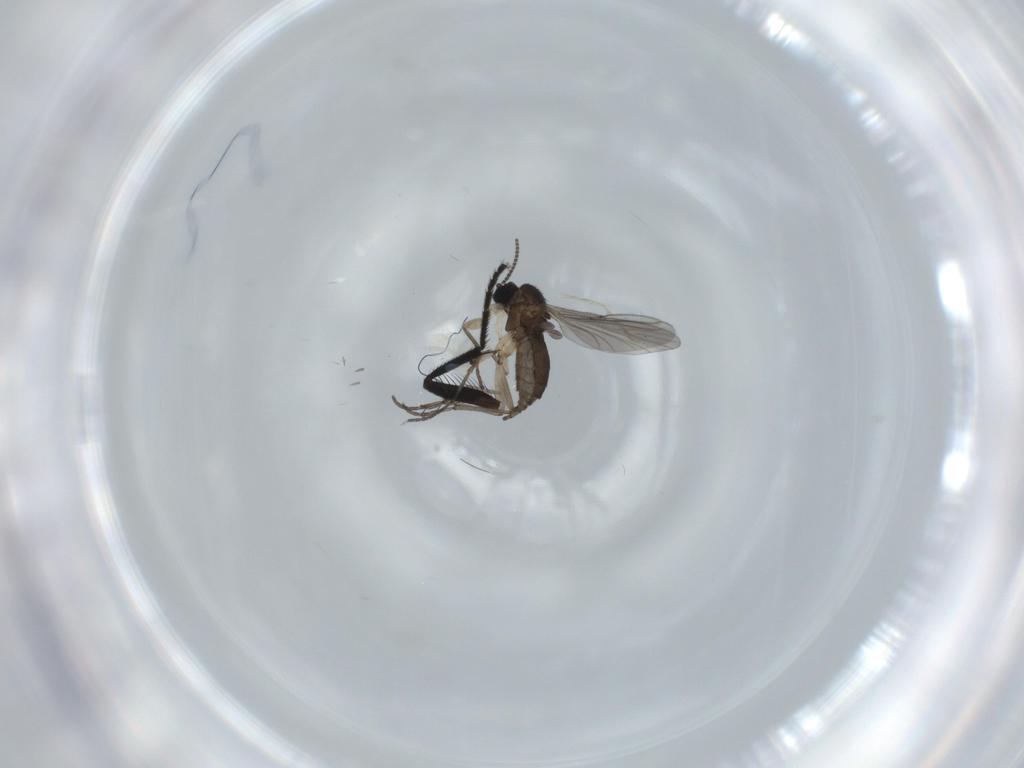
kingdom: Animalia
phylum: Arthropoda
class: Insecta
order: Diptera
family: Sciaridae
